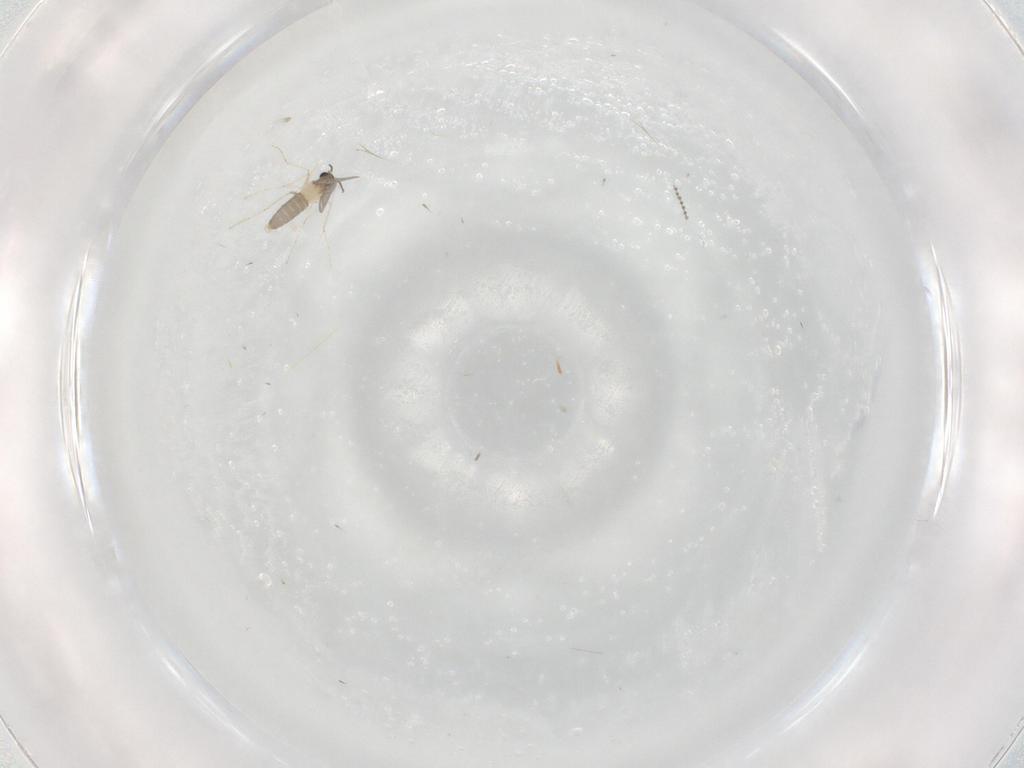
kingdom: Animalia
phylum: Arthropoda
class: Insecta
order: Diptera
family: Cecidomyiidae
